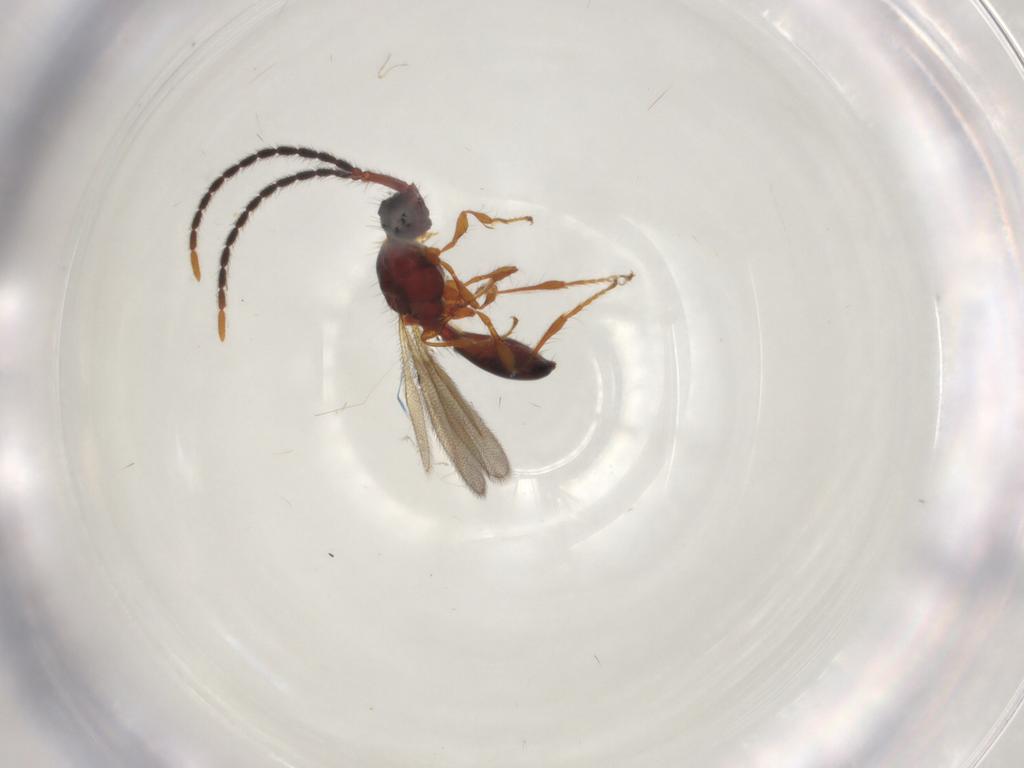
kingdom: Animalia
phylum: Arthropoda
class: Insecta
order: Hymenoptera
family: Diapriidae
